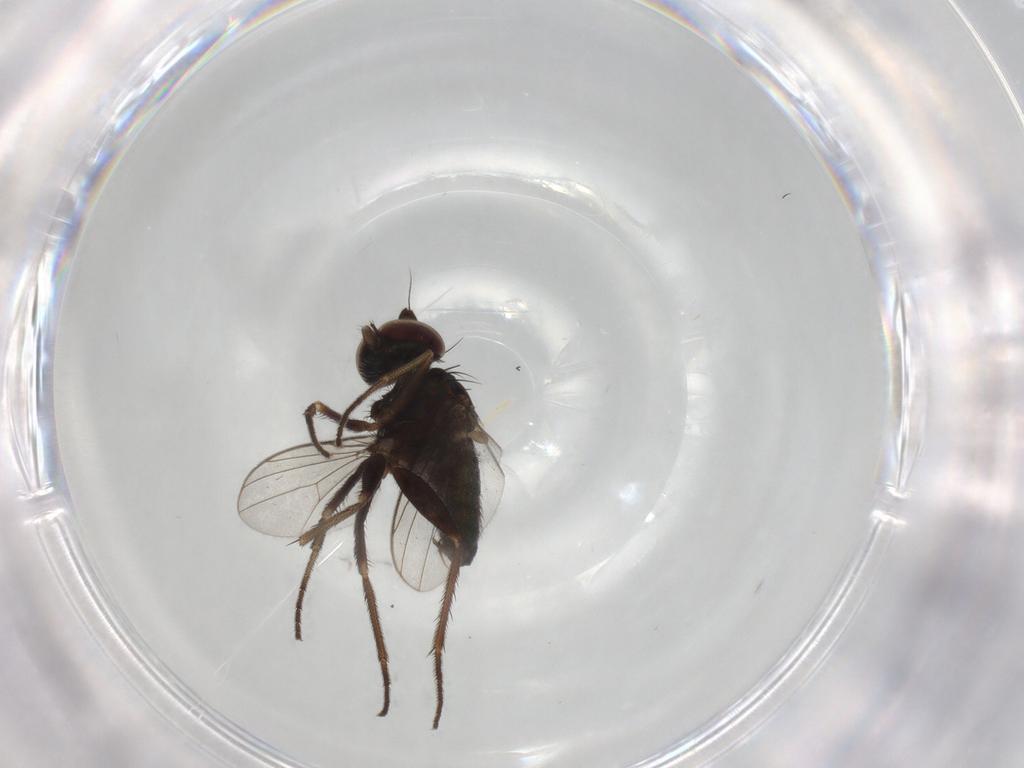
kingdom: Animalia
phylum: Arthropoda
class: Insecta
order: Diptera
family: Dolichopodidae
